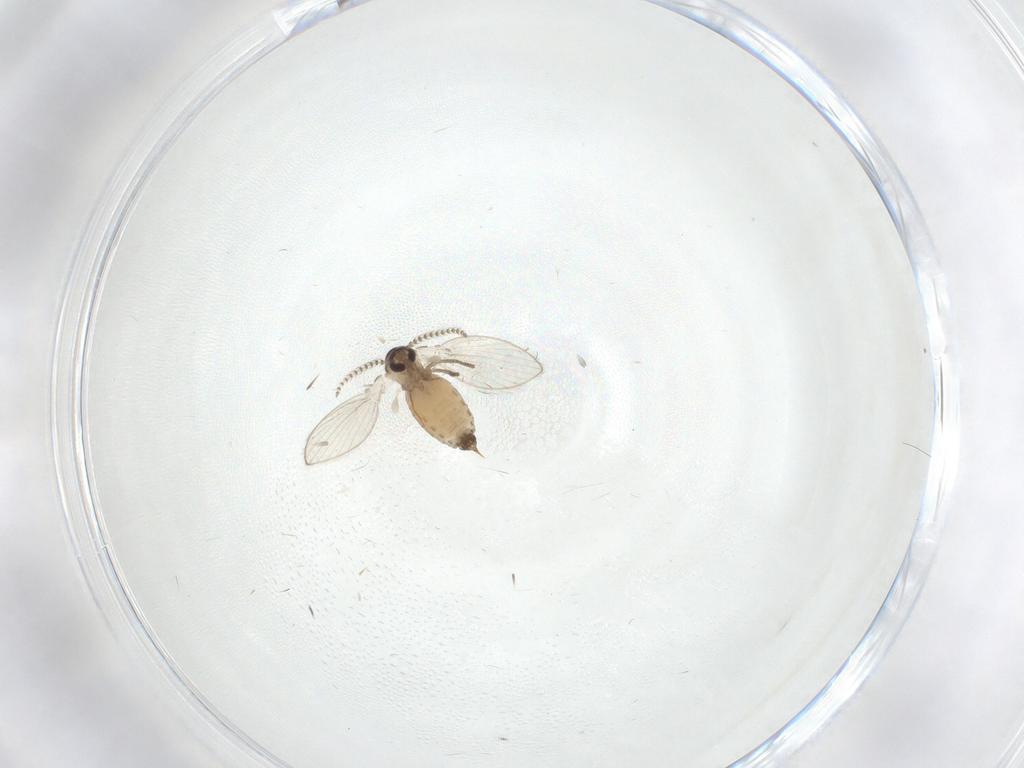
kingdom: Animalia
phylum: Arthropoda
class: Insecta
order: Diptera
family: Psychodidae
